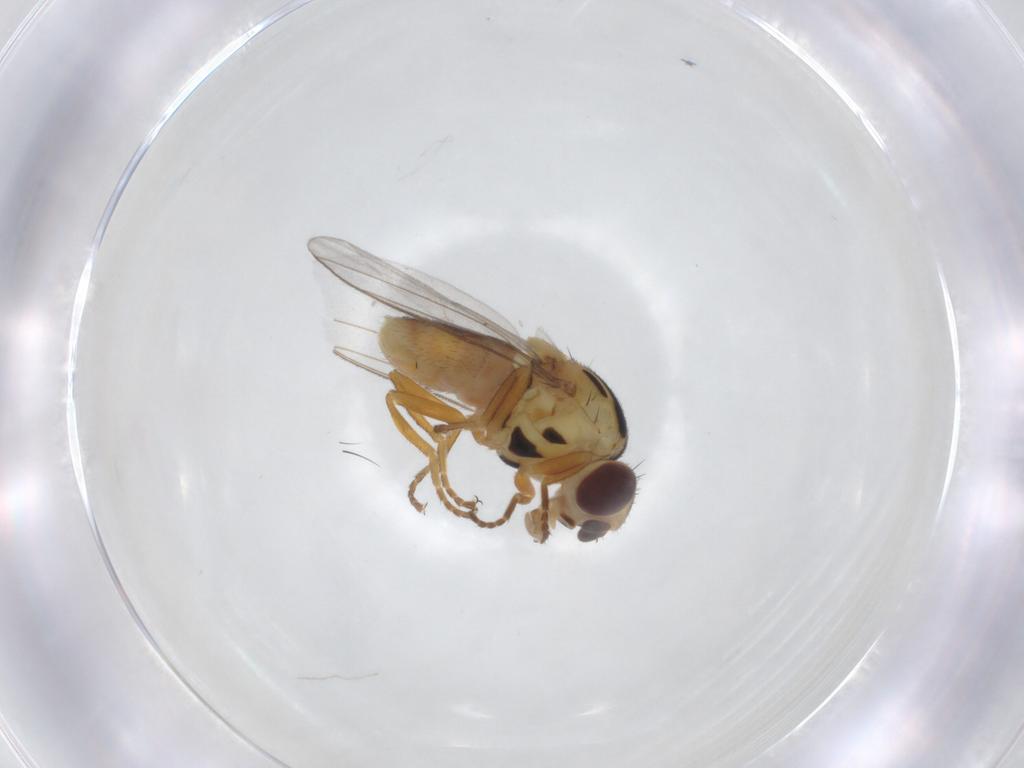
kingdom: Animalia
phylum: Arthropoda
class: Insecta
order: Diptera
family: Chloropidae
